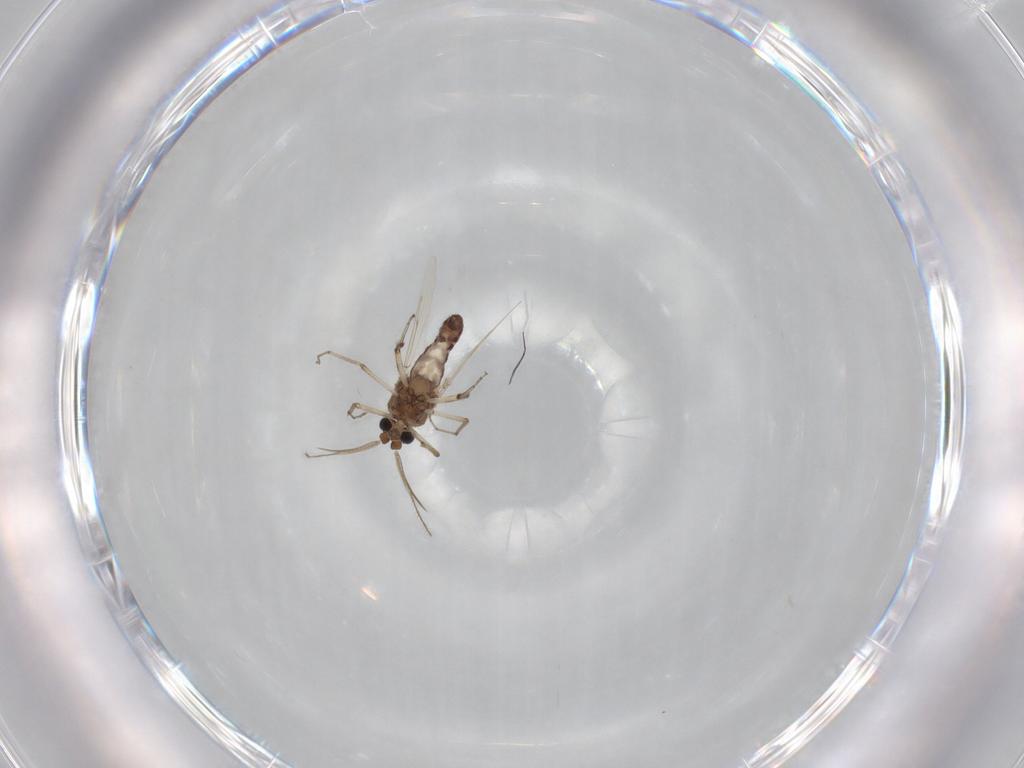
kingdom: Animalia
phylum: Arthropoda
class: Insecta
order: Diptera
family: Ceratopogonidae
